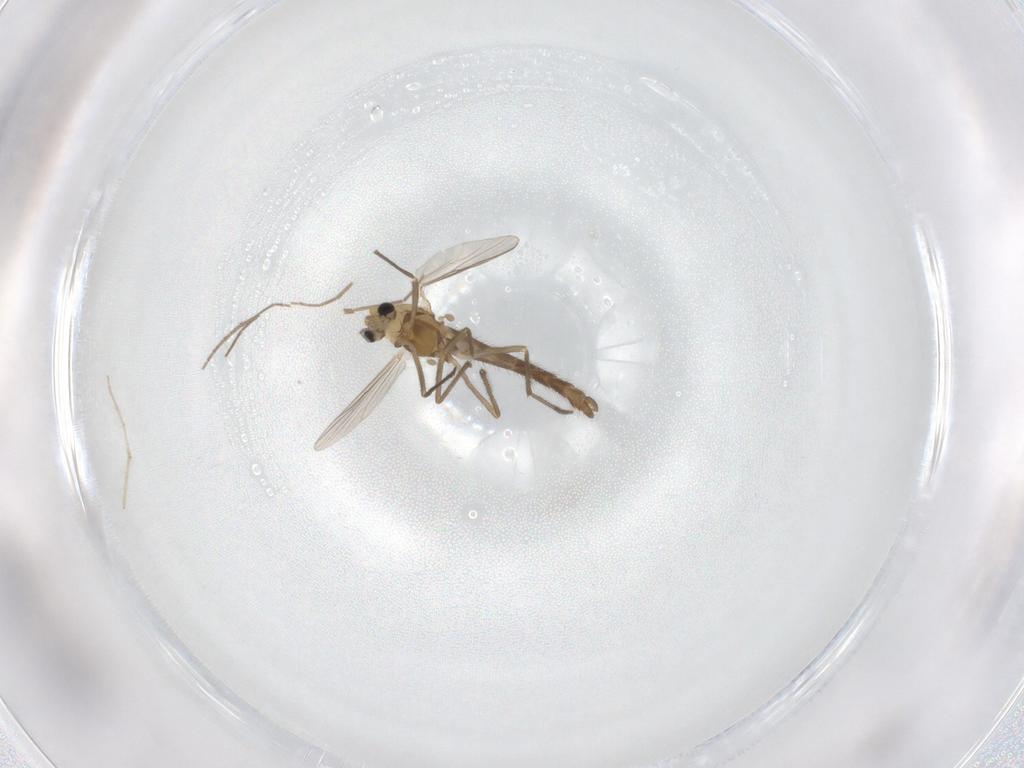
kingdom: Animalia
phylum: Arthropoda
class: Insecta
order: Diptera
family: Chironomidae
